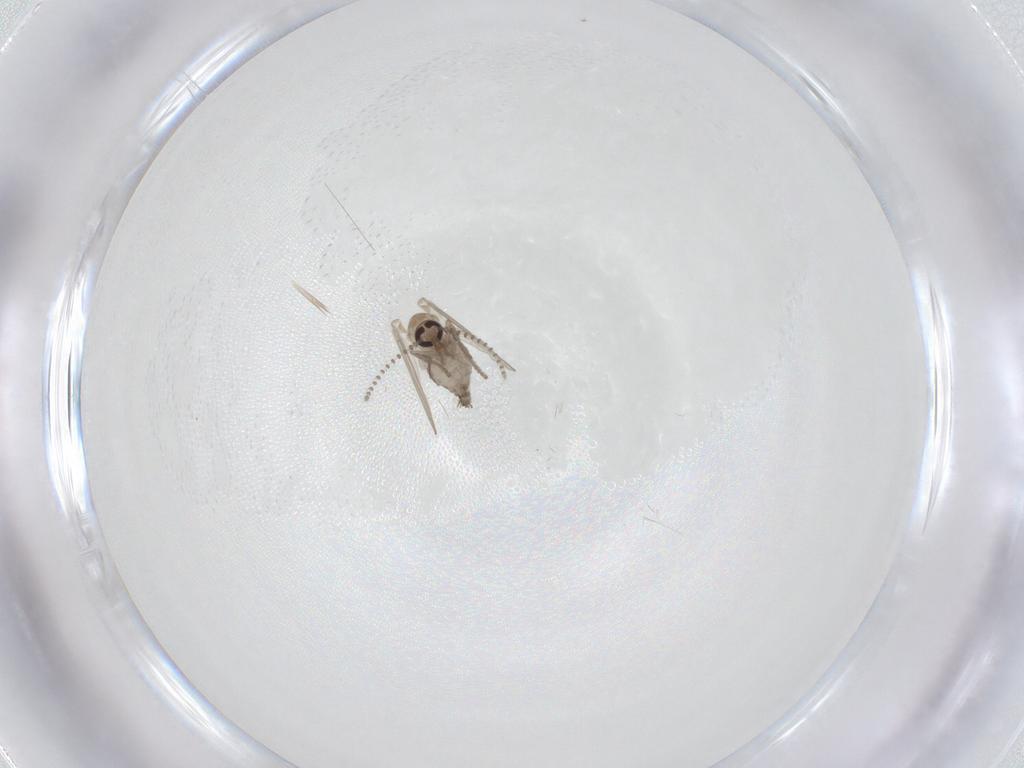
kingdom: Animalia
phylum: Arthropoda
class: Insecta
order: Diptera
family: Psychodidae
